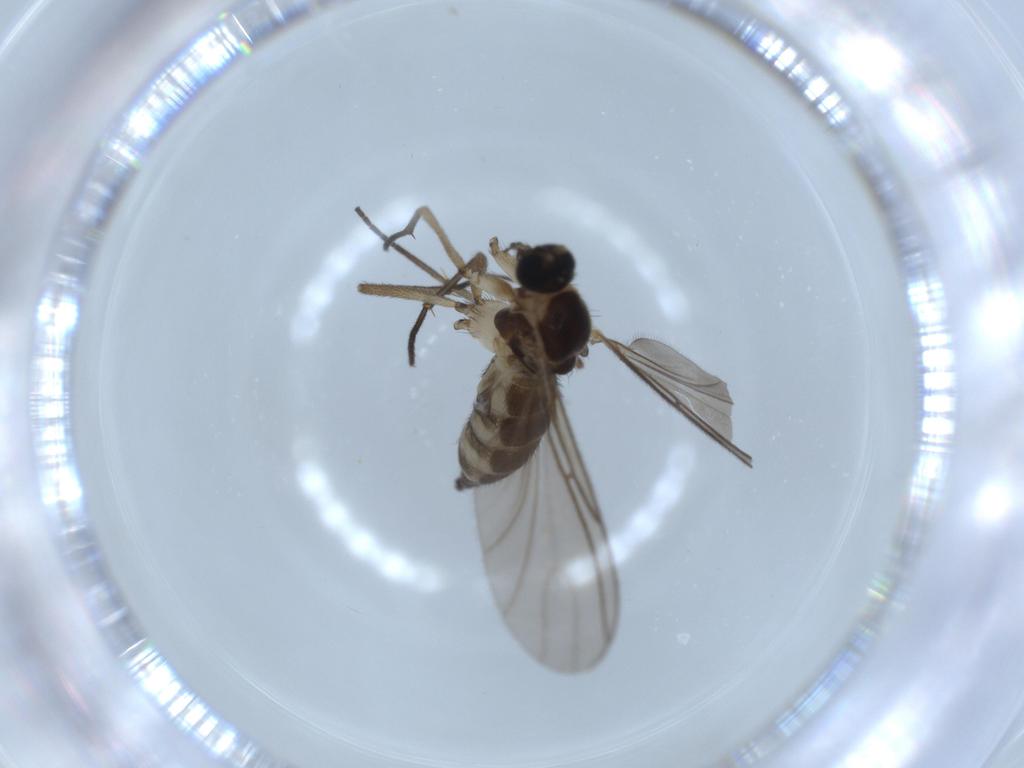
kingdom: Animalia
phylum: Arthropoda
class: Insecta
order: Diptera
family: Sciaridae
